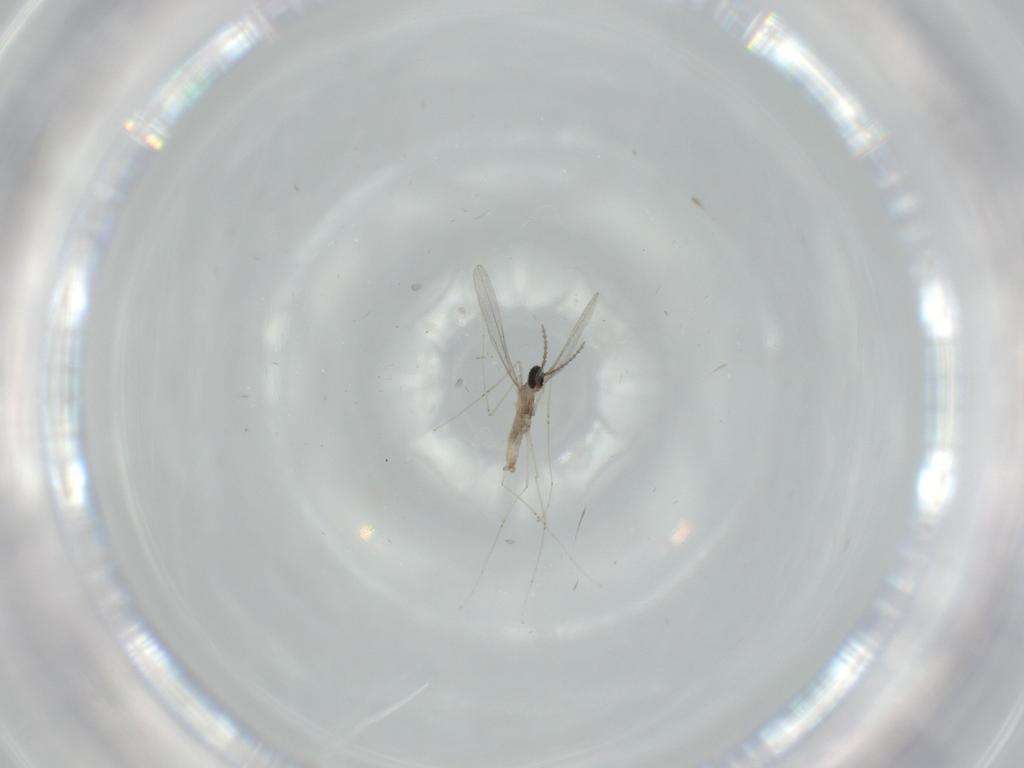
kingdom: Animalia
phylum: Arthropoda
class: Insecta
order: Diptera
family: Cecidomyiidae
